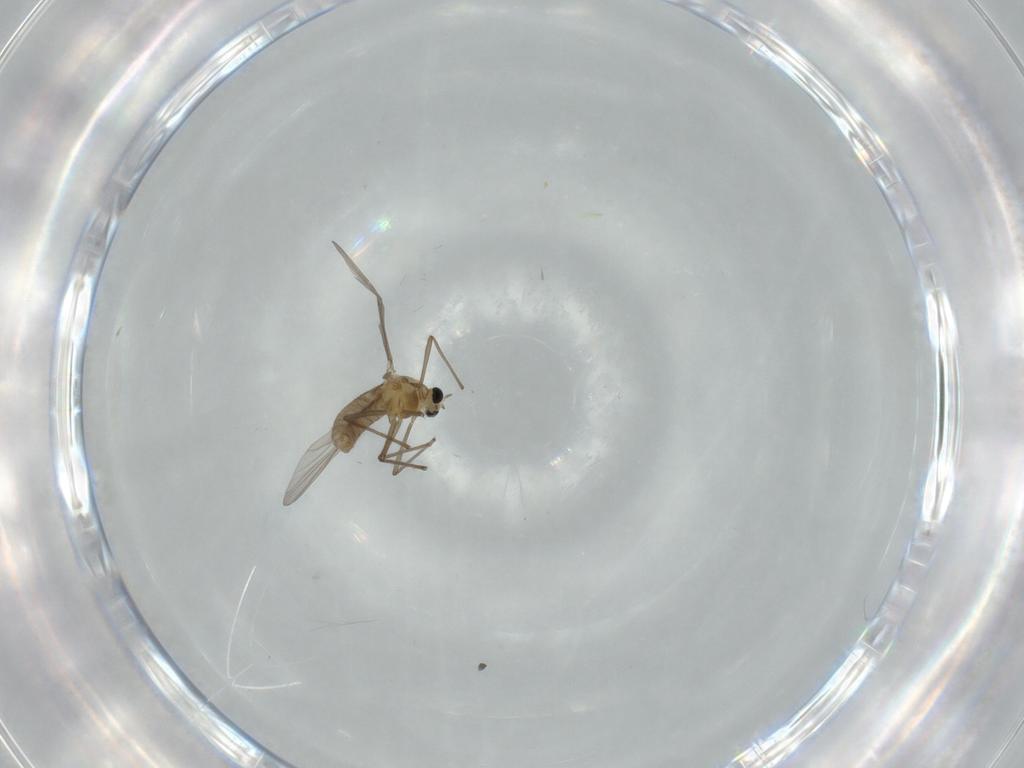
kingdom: Animalia
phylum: Arthropoda
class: Insecta
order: Diptera
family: Chironomidae
